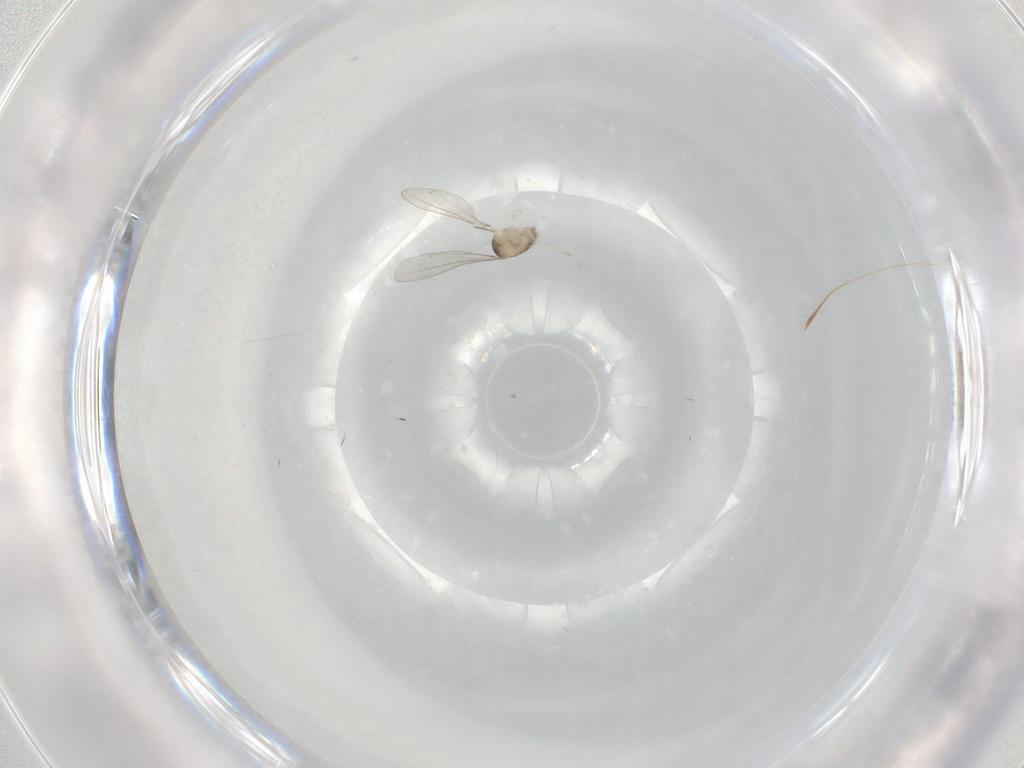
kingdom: Animalia
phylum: Arthropoda
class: Insecta
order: Diptera
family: Cecidomyiidae
